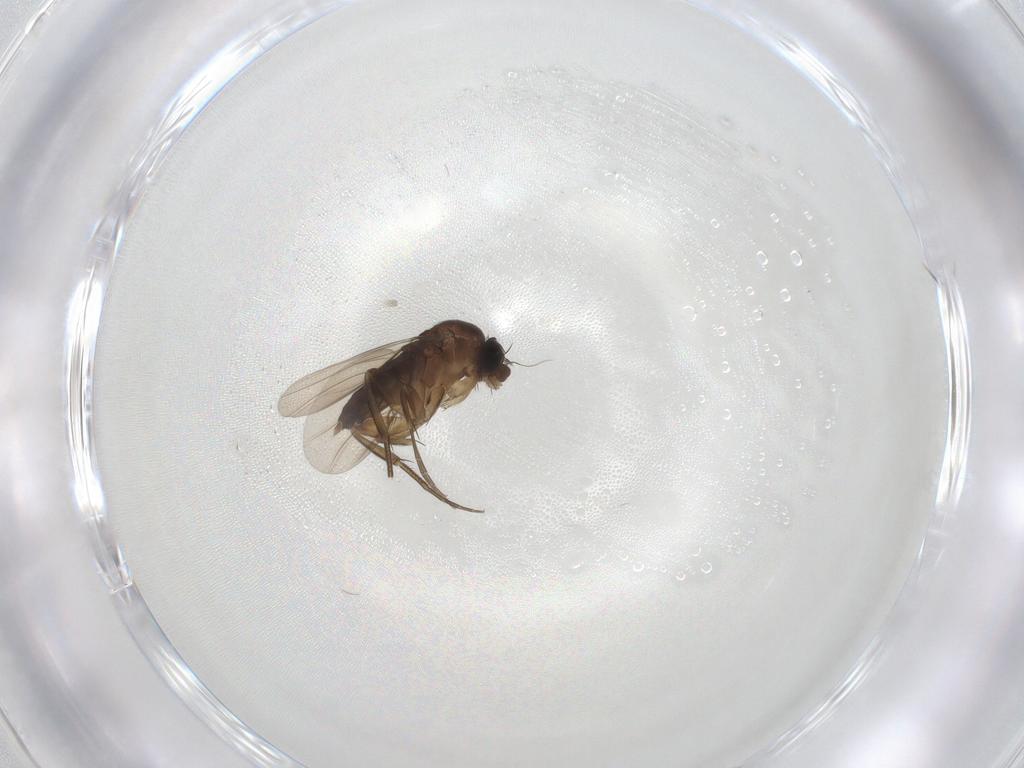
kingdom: Animalia
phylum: Arthropoda
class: Insecta
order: Diptera
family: Phoridae
